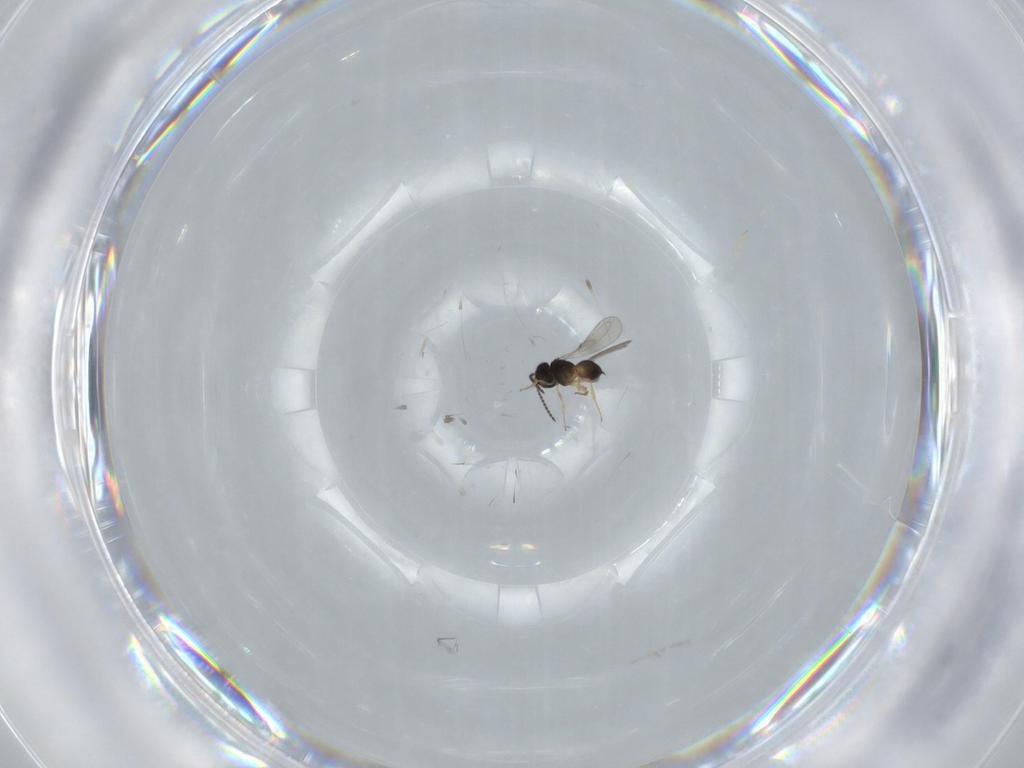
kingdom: Animalia
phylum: Arthropoda
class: Insecta
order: Hymenoptera
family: Scelionidae
